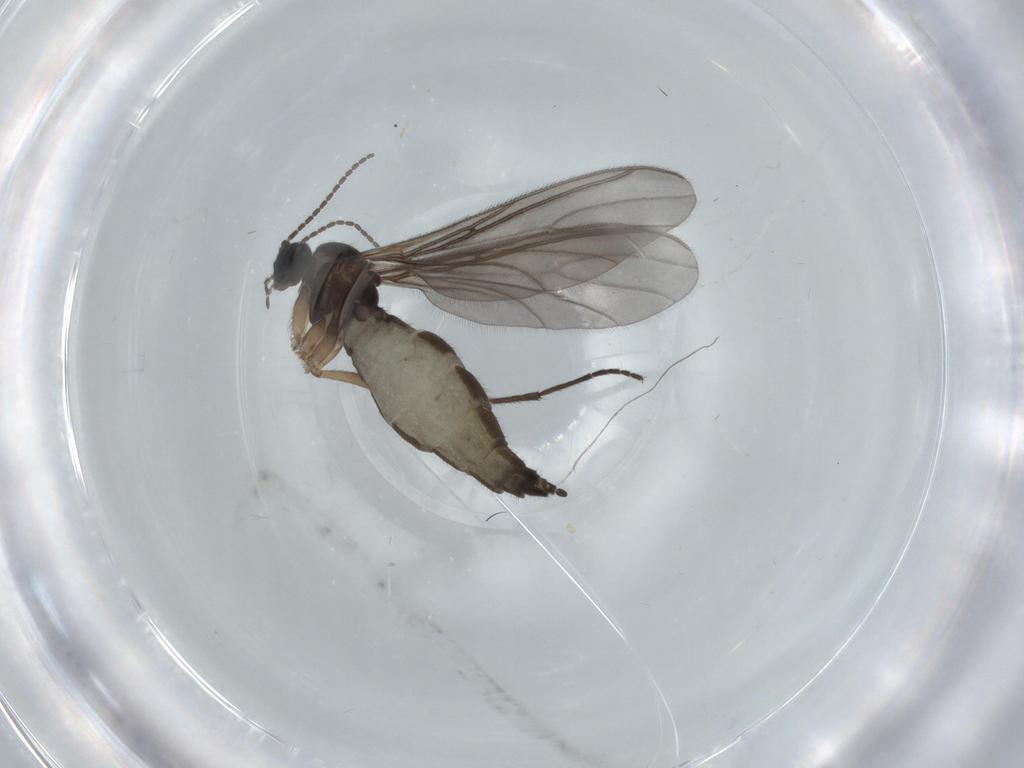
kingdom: Animalia
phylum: Arthropoda
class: Insecta
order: Diptera
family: Sciaridae
